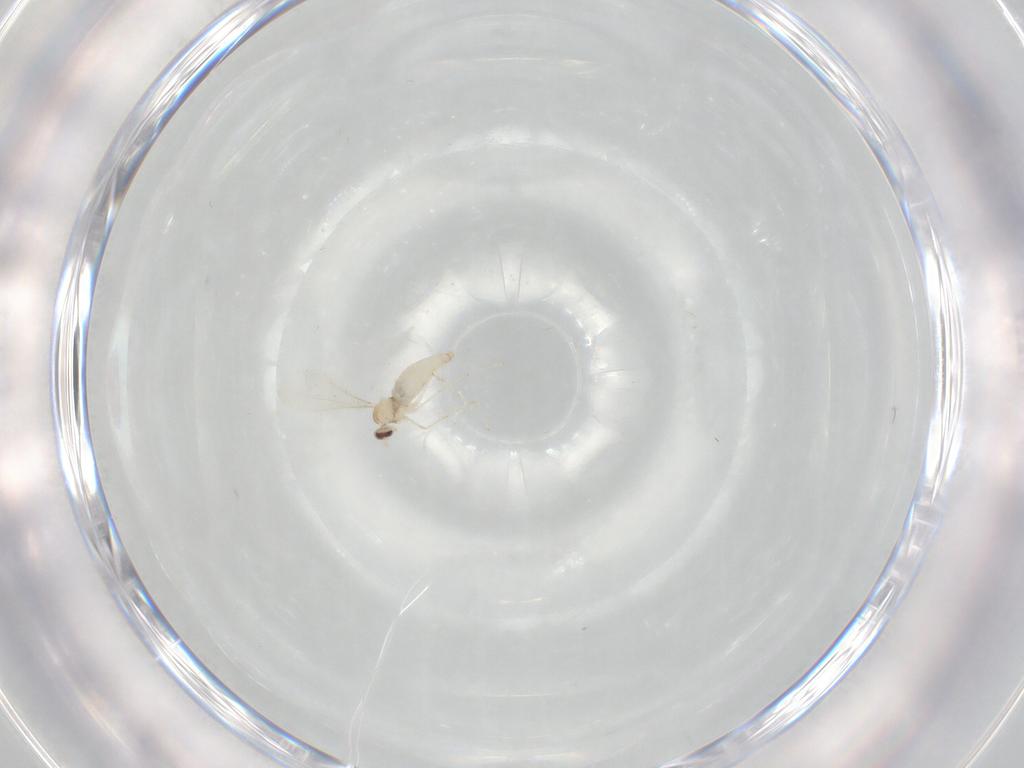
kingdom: Animalia
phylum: Arthropoda
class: Insecta
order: Diptera
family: Cecidomyiidae
